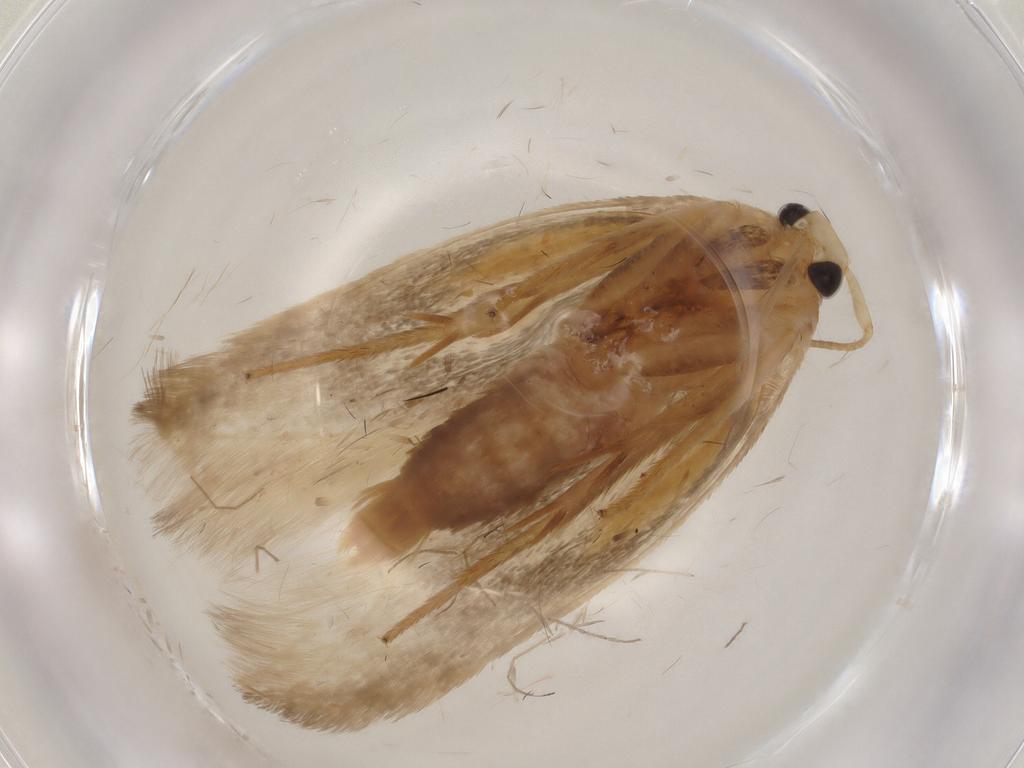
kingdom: Animalia
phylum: Arthropoda
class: Insecta
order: Lepidoptera
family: Geometridae
